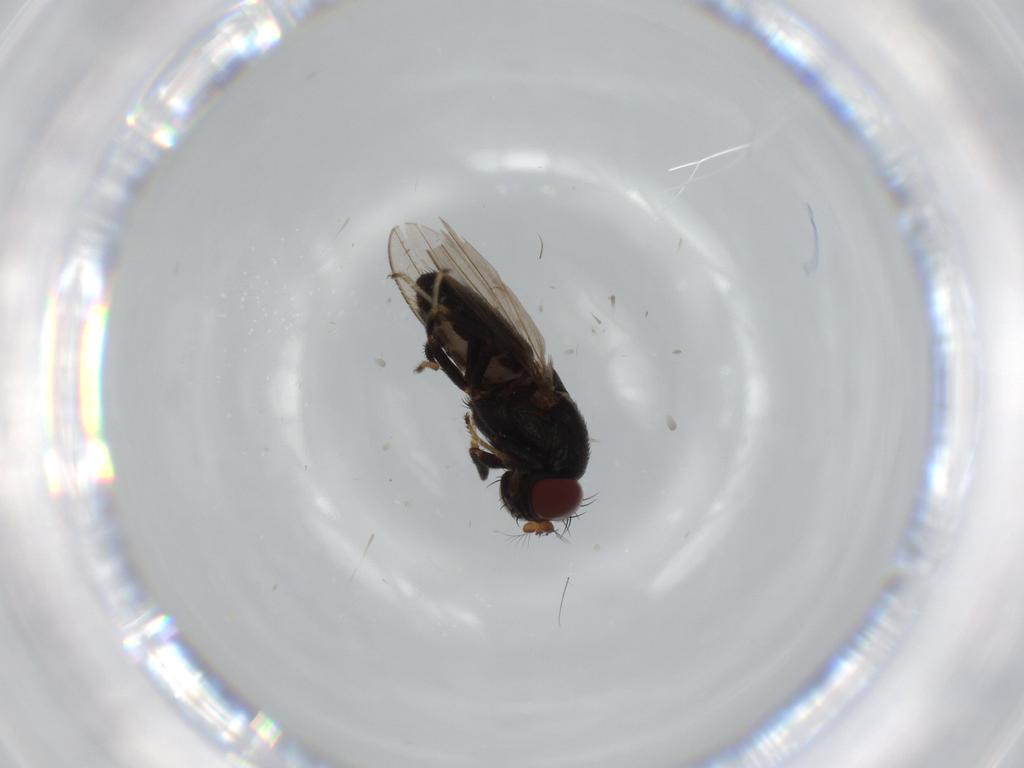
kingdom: Animalia
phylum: Arthropoda
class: Insecta
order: Diptera
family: Ephydridae
